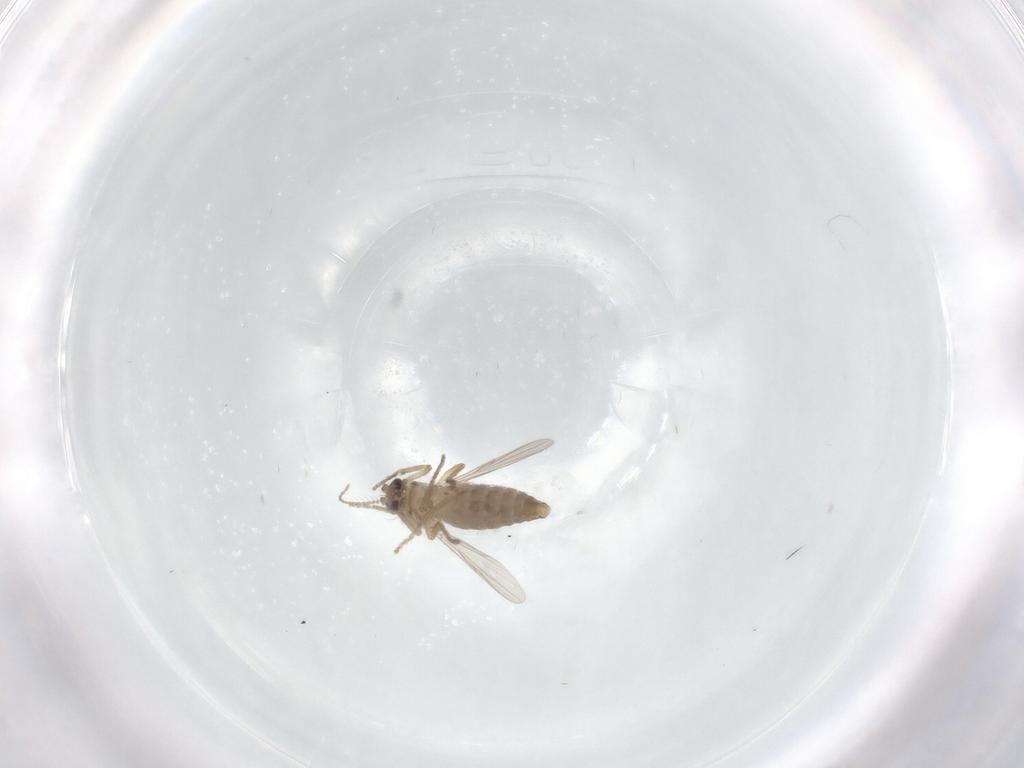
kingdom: Animalia
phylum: Arthropoda
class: Insecta
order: Diptera
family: Ceratopogonidae
